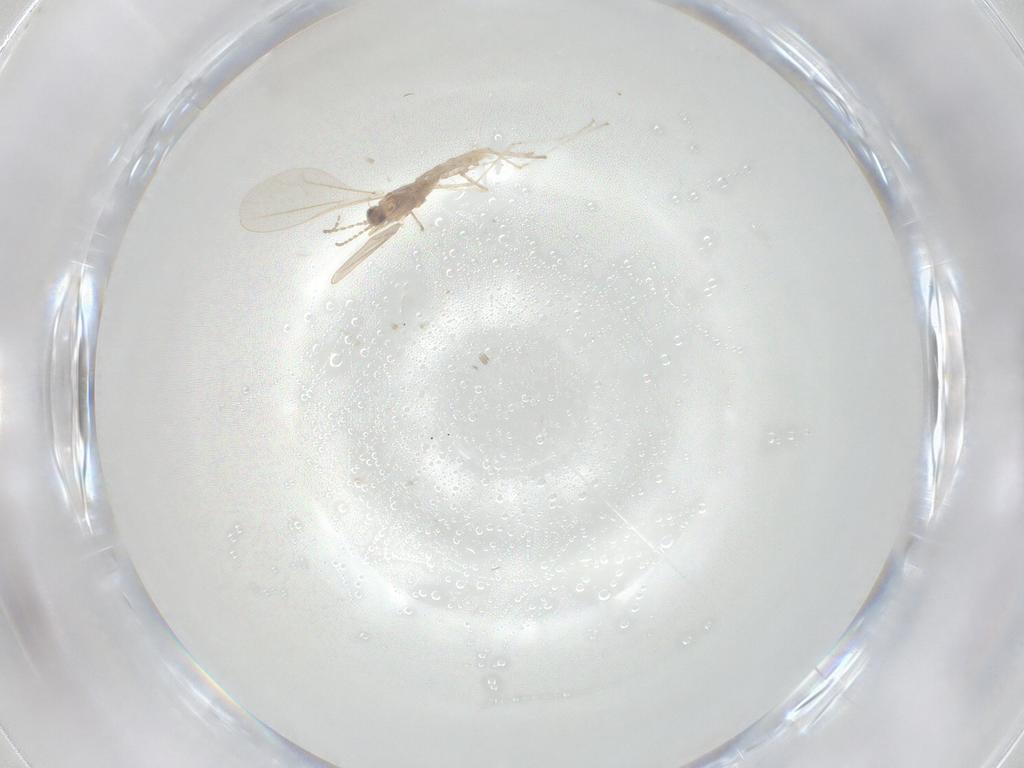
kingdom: Animalia
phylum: Arthropoda
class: Insecta
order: Diptera
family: Cecidomyiidae
